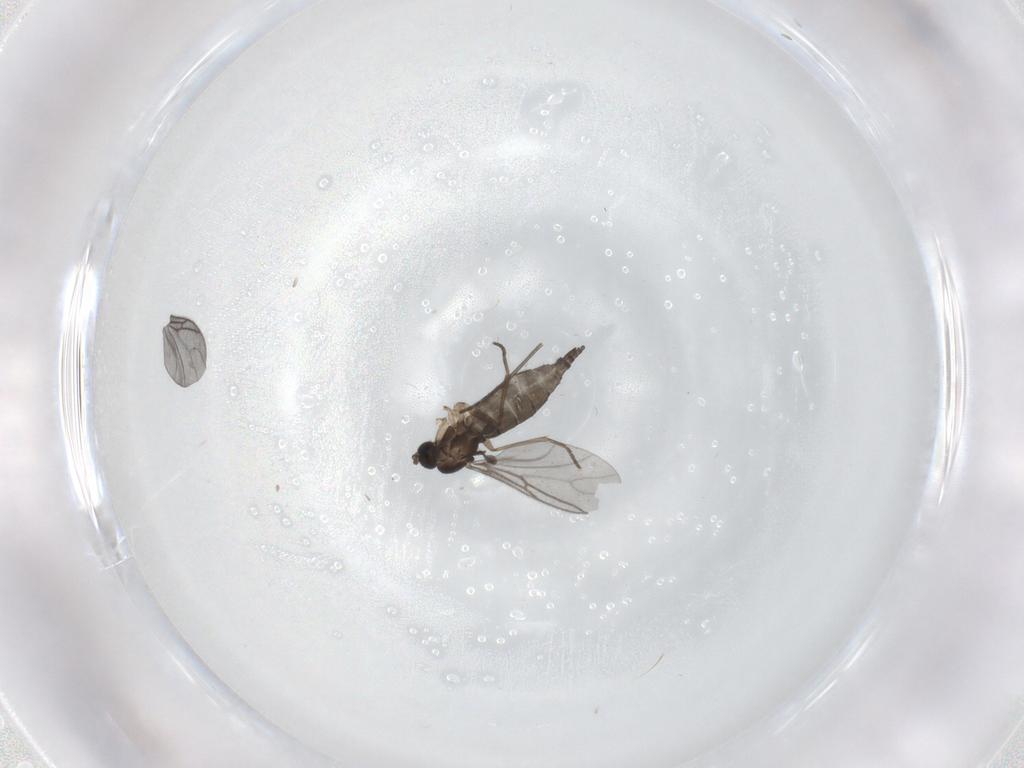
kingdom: Animalia
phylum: Arthropoda
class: Insecta
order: Diptera
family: Sciaridae
